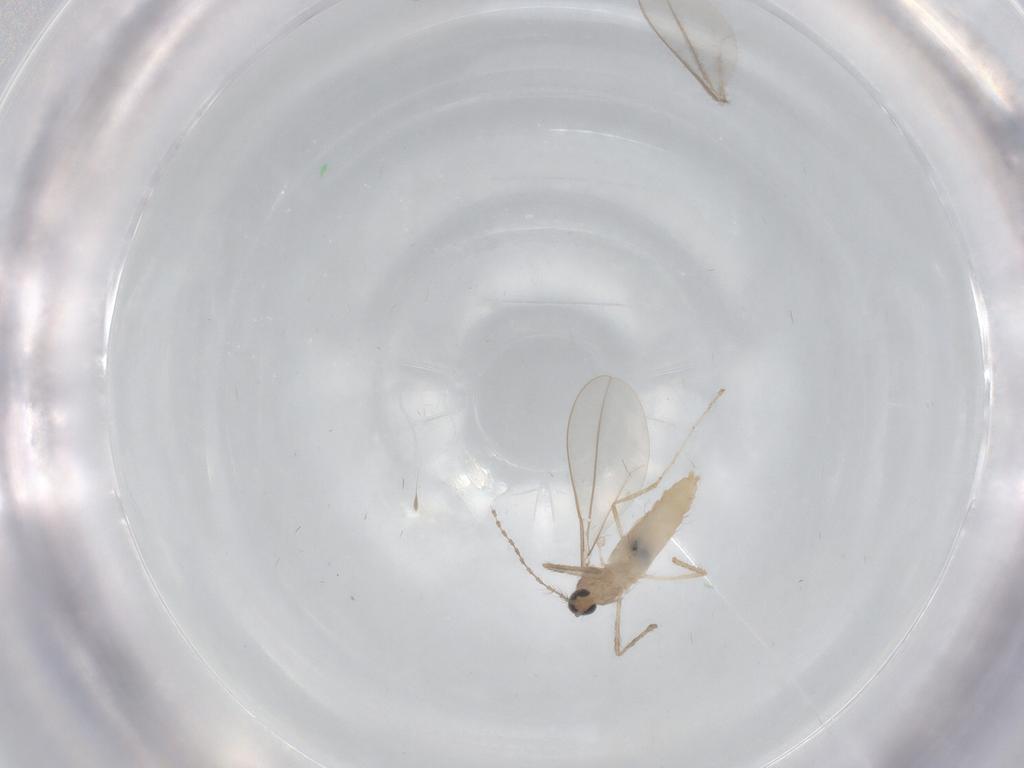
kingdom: Animalia
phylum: Arthropoda
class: Insecta
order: Diptera
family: Cecidomyiidae
